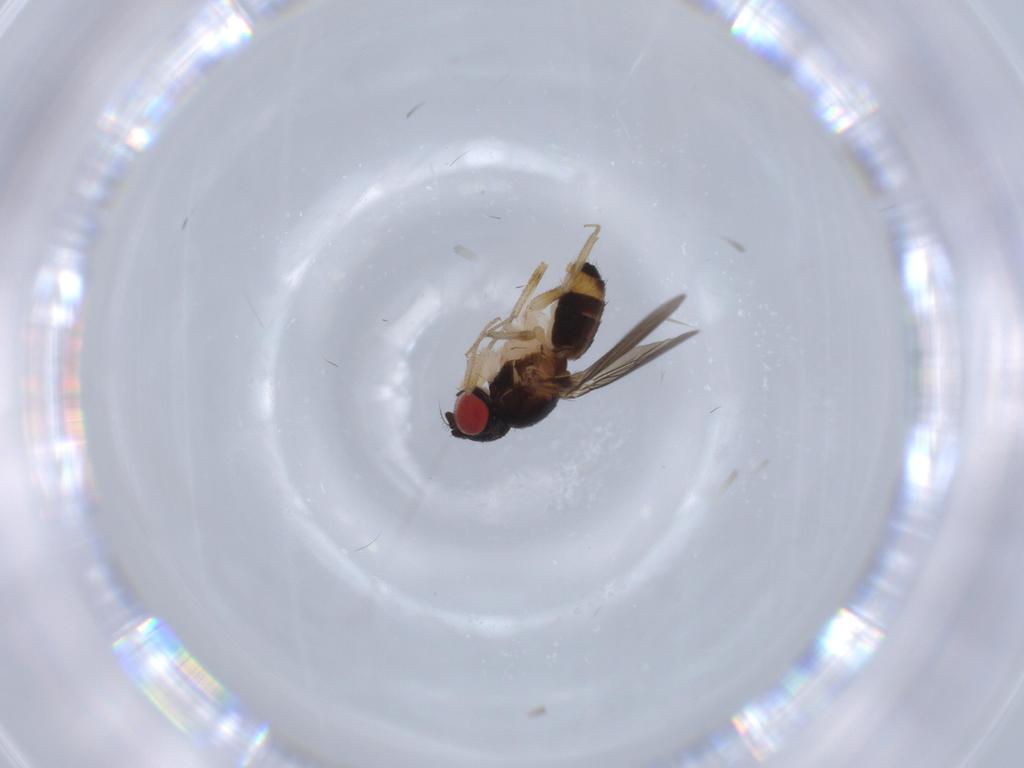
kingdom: Animalia
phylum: Arthropoda
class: Insecta
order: Diptera
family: Drosophilidae
